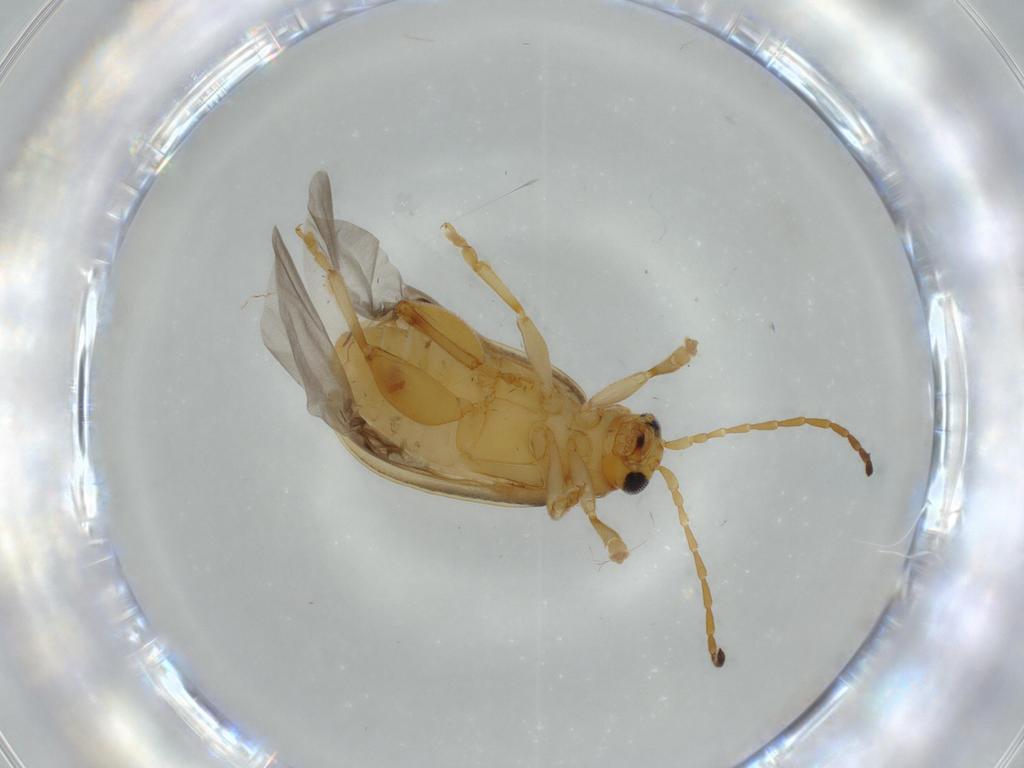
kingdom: Animalia
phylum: Arthropoda
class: Insecta
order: Coleoptera
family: Chrysomelidae
